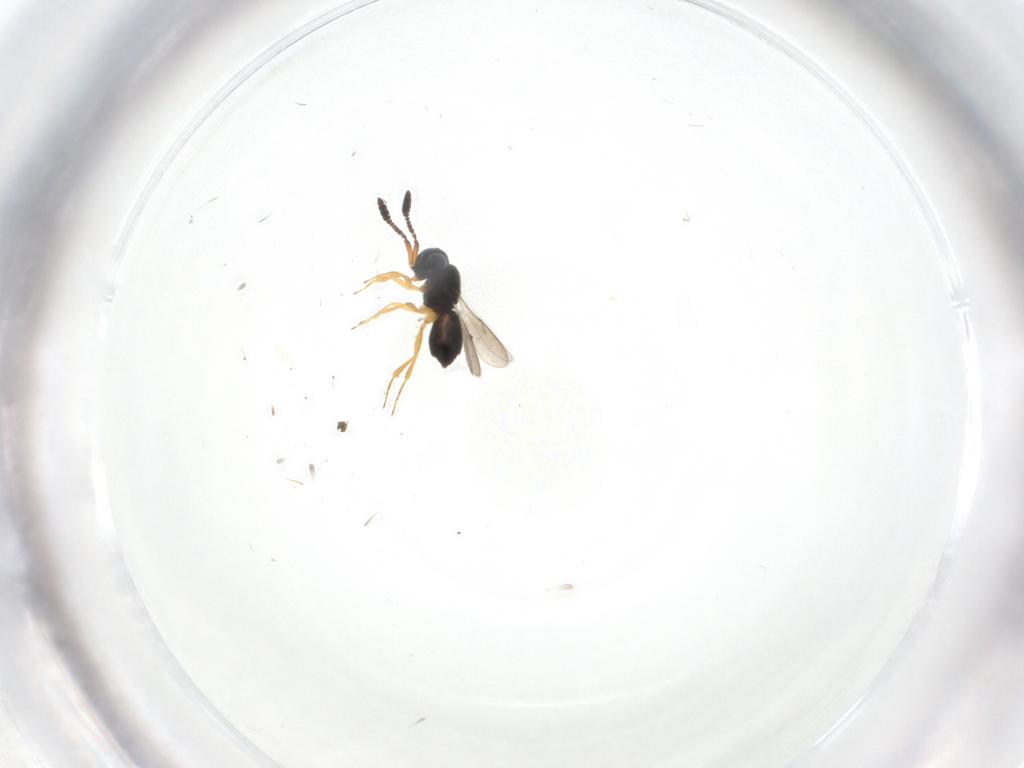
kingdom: Animalia
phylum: Arthropoda
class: Insecta
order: Hymenoptera
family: Scelionidae
